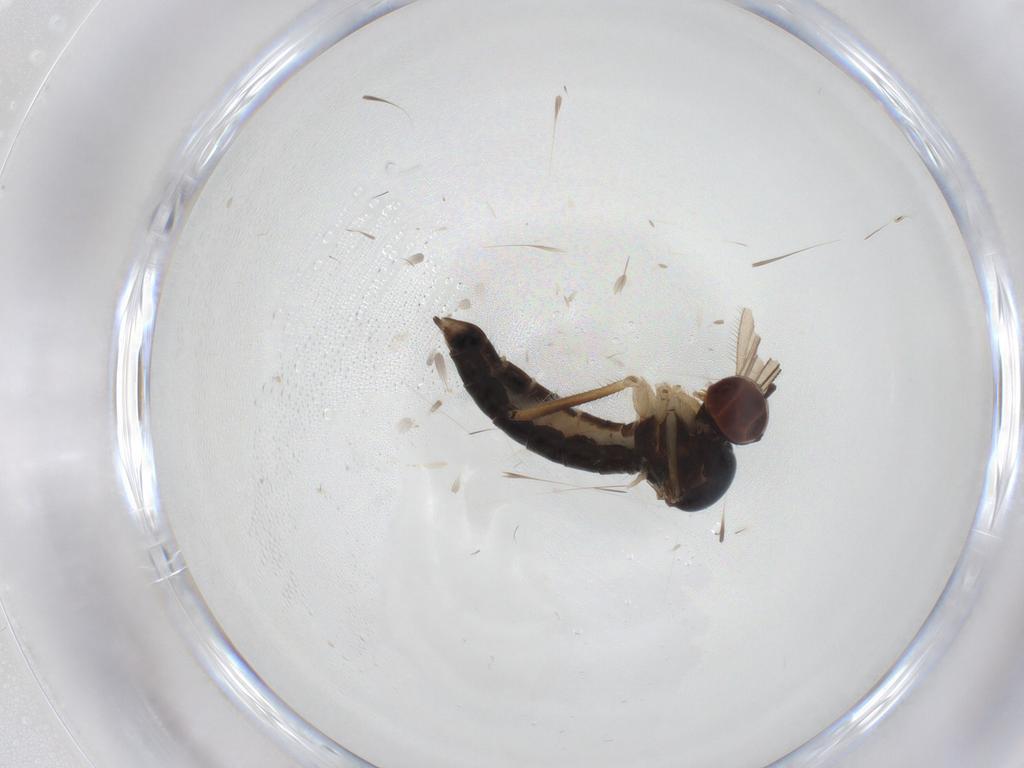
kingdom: Animalia
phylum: Arthropoda
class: Insecta
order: Diptera
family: Hybotidae
